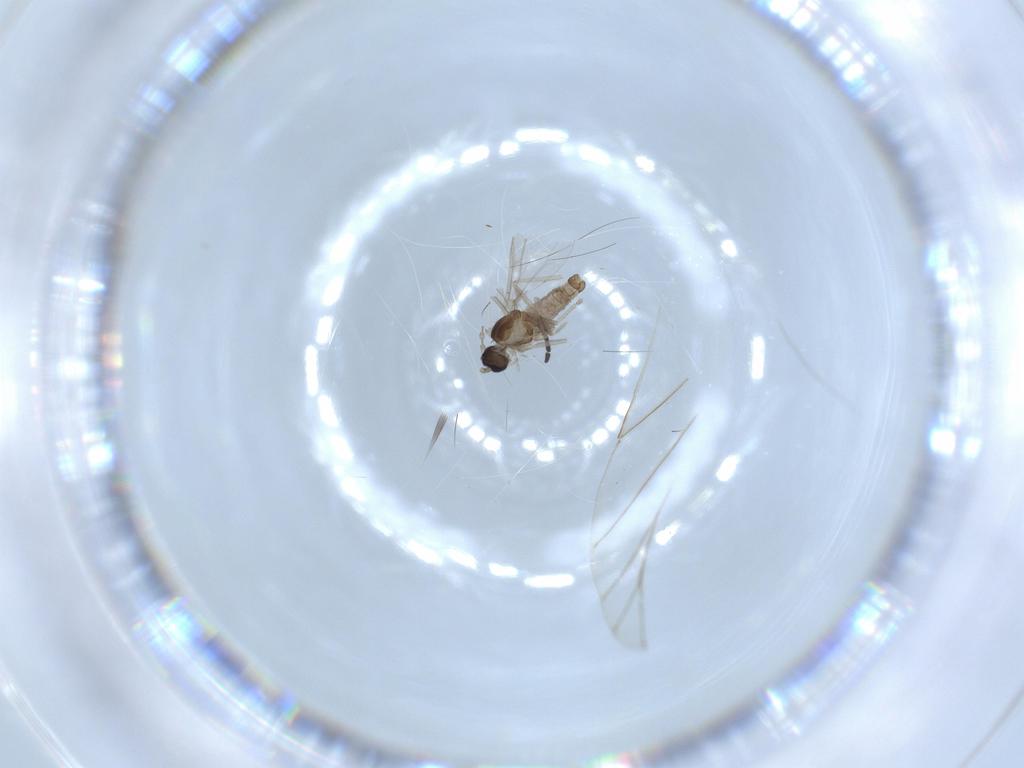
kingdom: Animalia
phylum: Arthropoda
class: Insecta
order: Diptera
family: Cecidomyiidae
